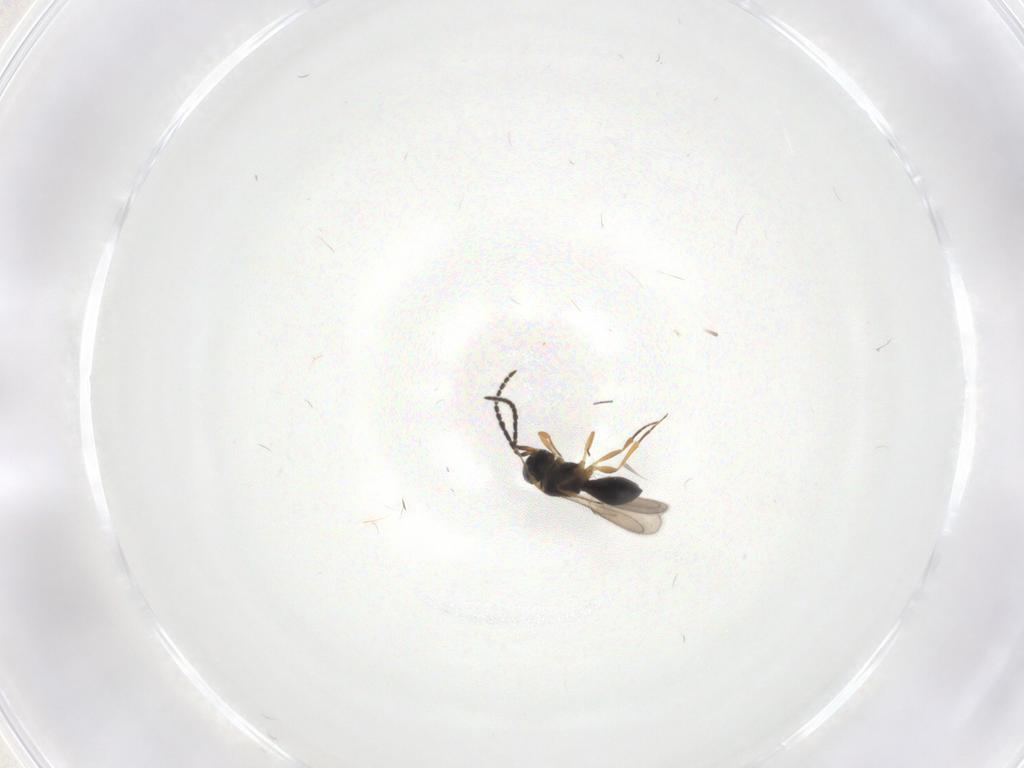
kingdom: Animalia
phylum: Arthropoda
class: Insecta
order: Hymenoptera
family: Scelionidae
